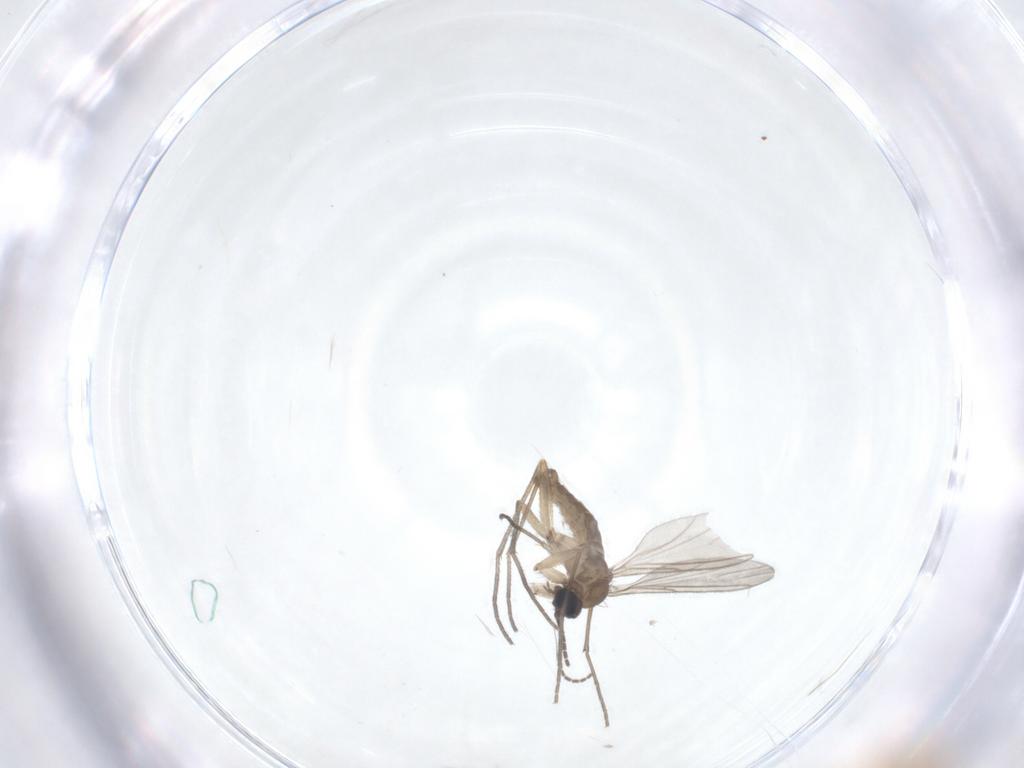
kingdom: Animalia
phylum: Arthropoda
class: Insecta
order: Diptera
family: Sciaridae
